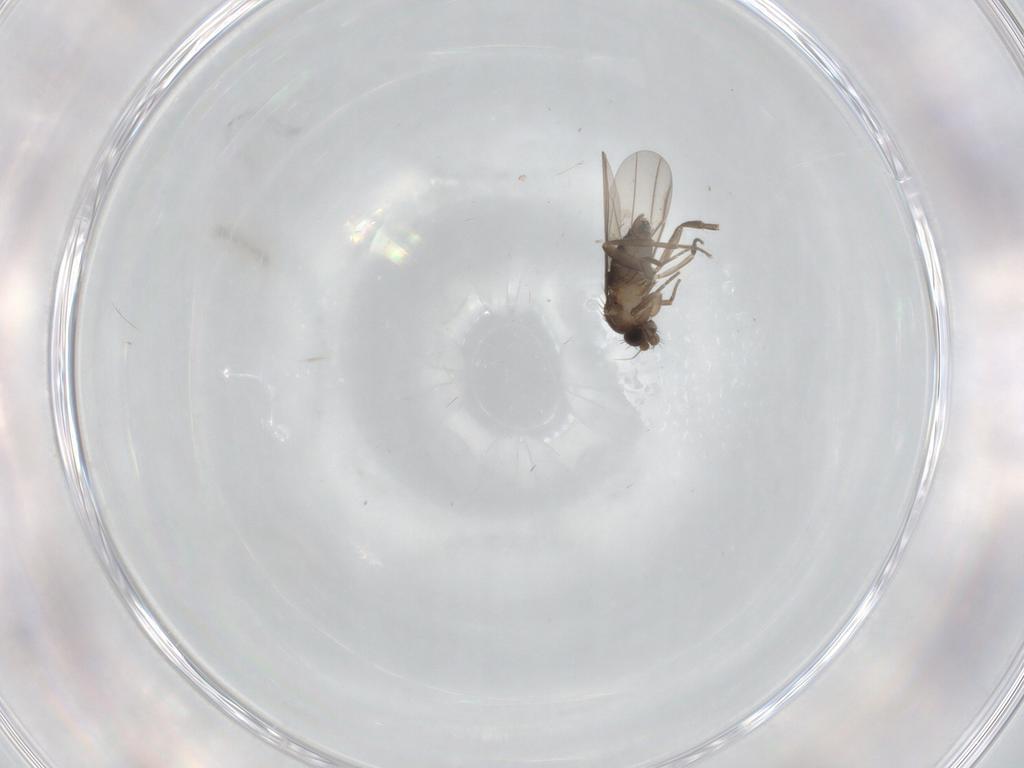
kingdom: Animalia
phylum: Arthropoda
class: Insecta
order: Diptera
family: Phoridae
